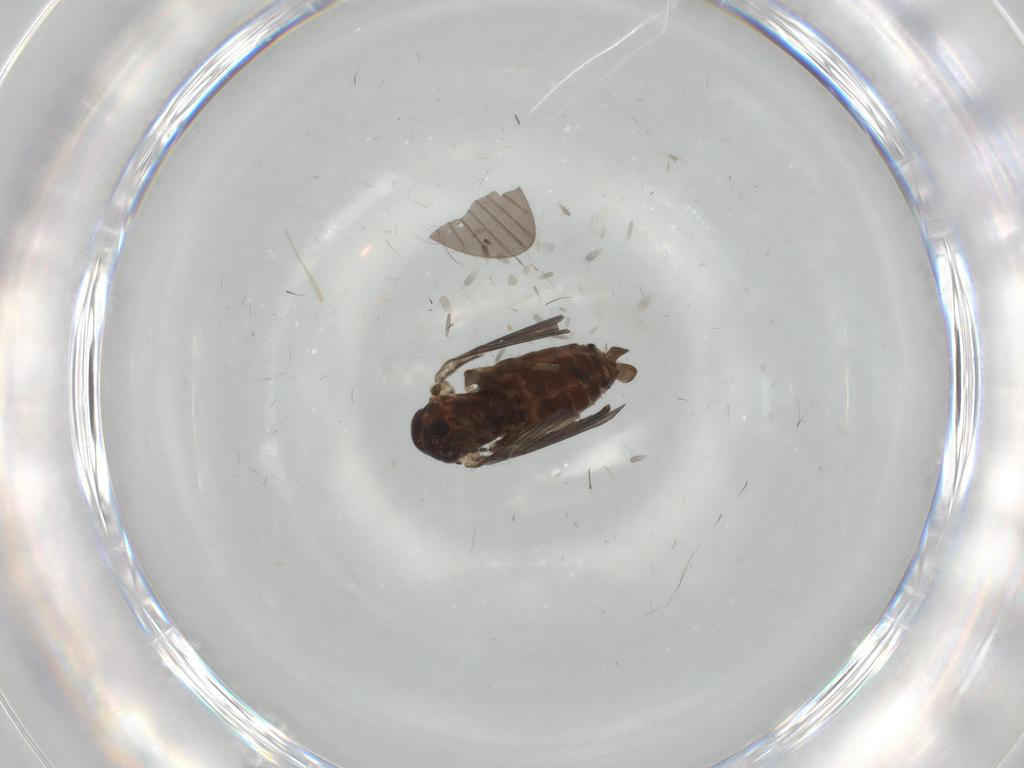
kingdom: Animalia
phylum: Arthropoda
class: Insecta
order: Diptera
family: Psychodidae
